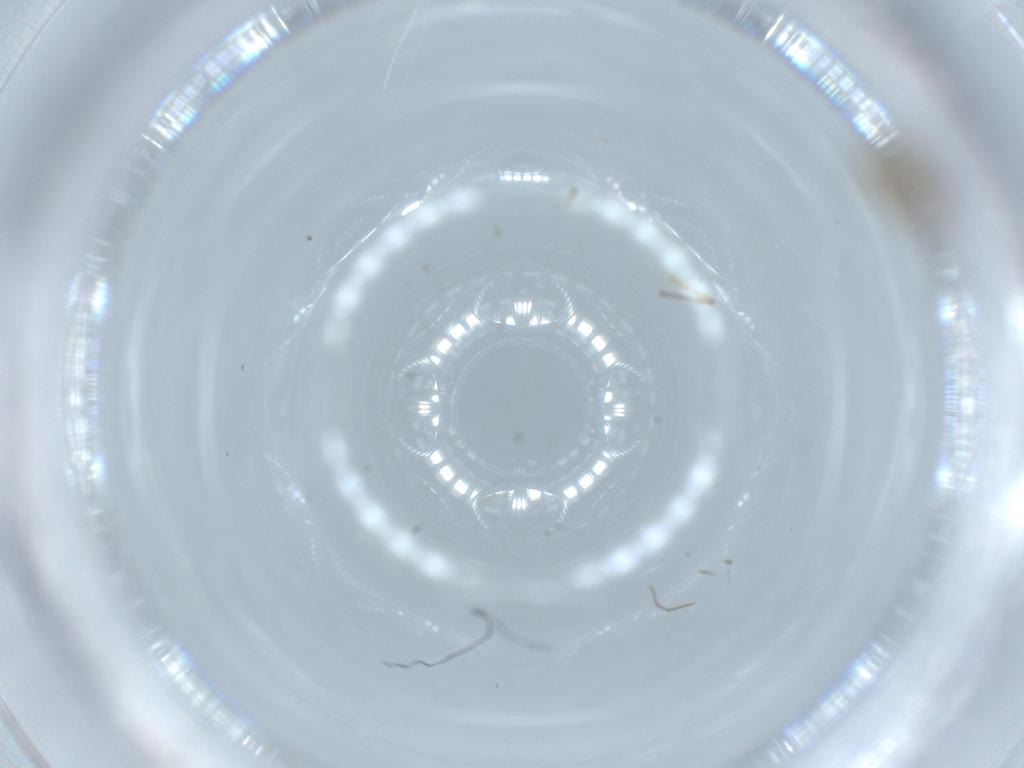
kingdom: Animalia
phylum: Arthropoda
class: Insecta
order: Diptera
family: Chironomidae
